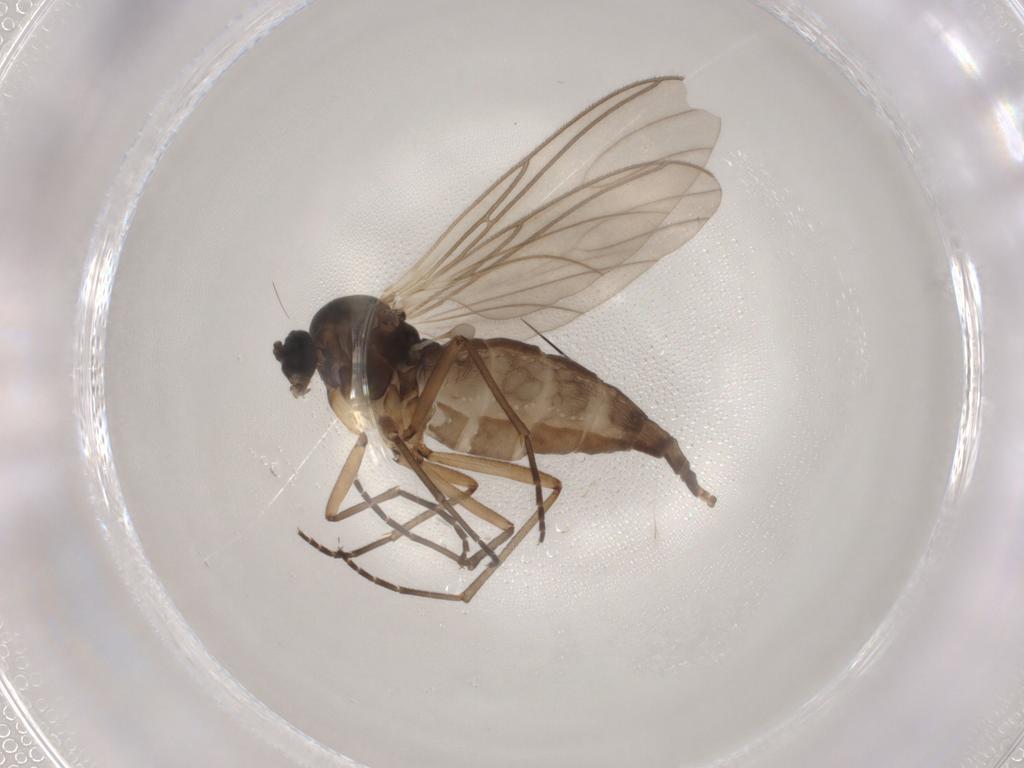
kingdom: Animalia
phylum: Arthropoda
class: Insecta
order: Diptera
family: Sciaridae
